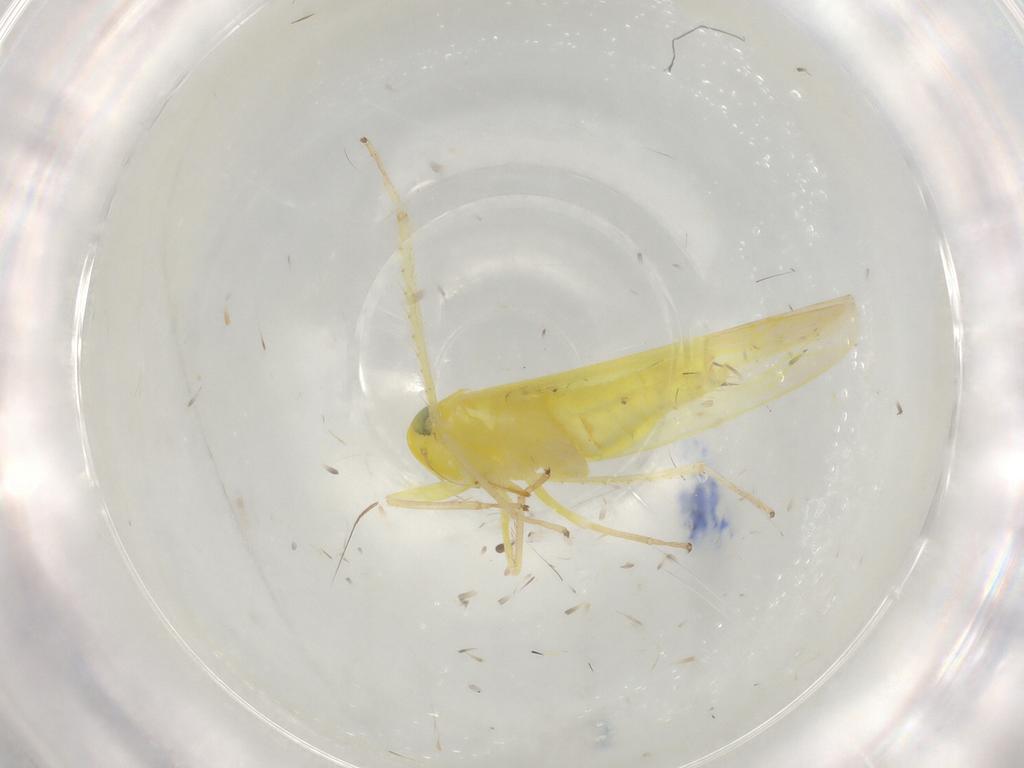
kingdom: Animalia
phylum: Arthropoda
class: Insecta
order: Hemiptera
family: Cicadellidae
